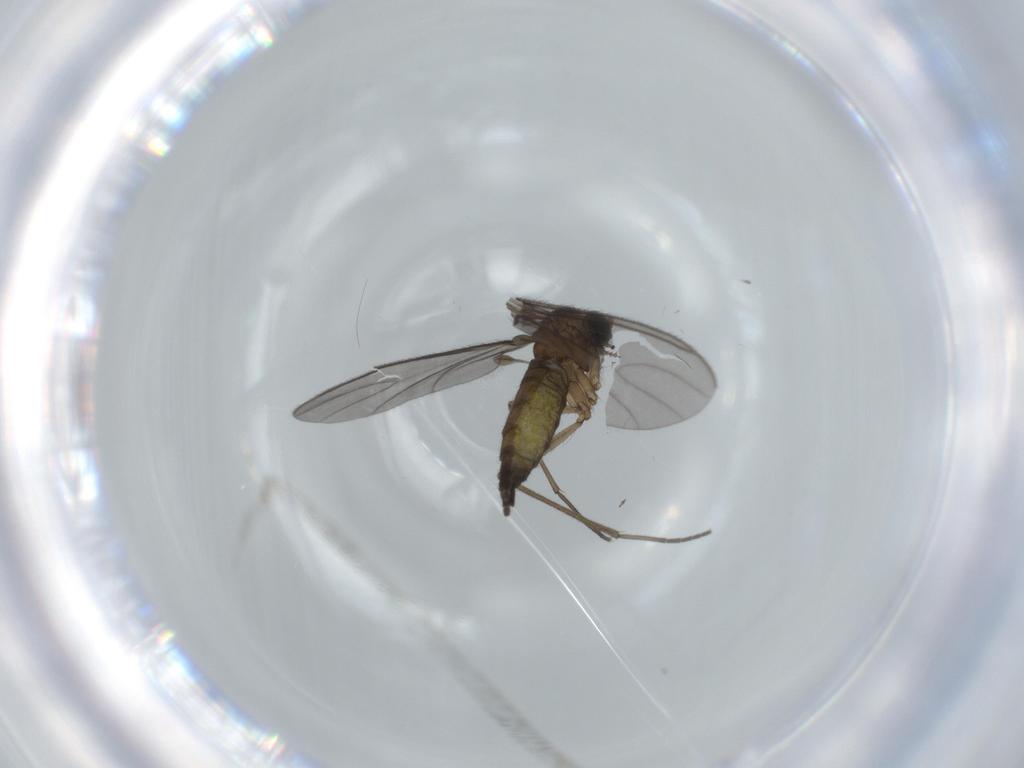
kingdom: Animalia
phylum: Arthropoda
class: Insecta
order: Diptera
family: Sciaridae
